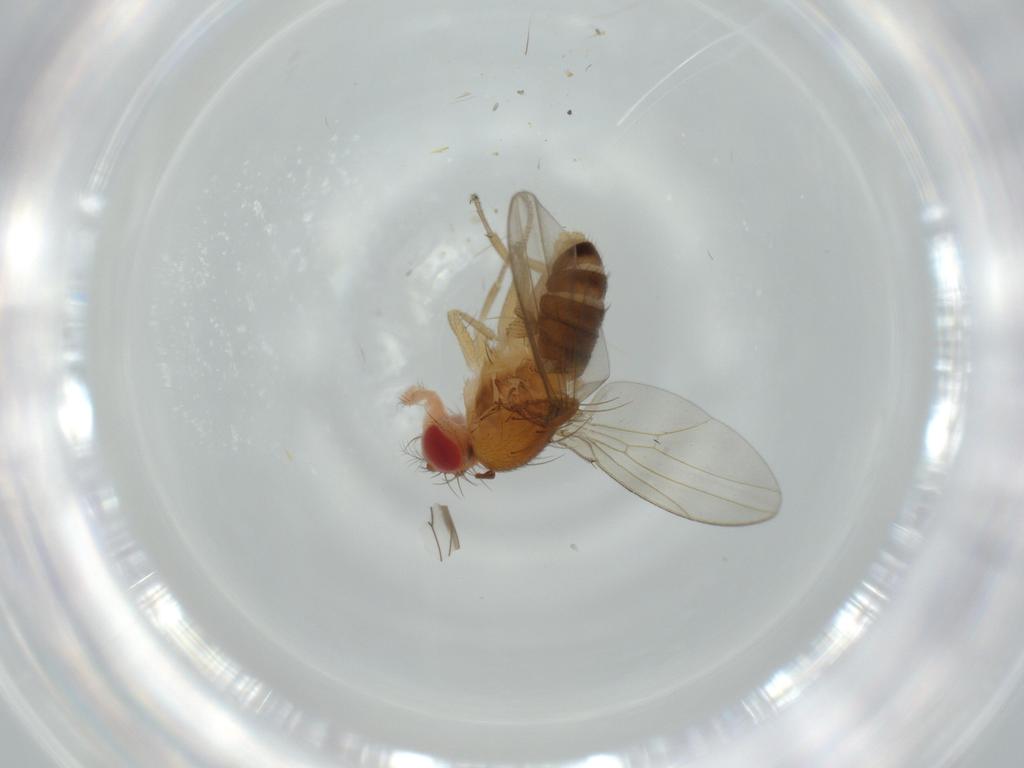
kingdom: Animalia
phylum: Arthropoda
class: Insecta
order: Diptera
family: Drosophilidae
